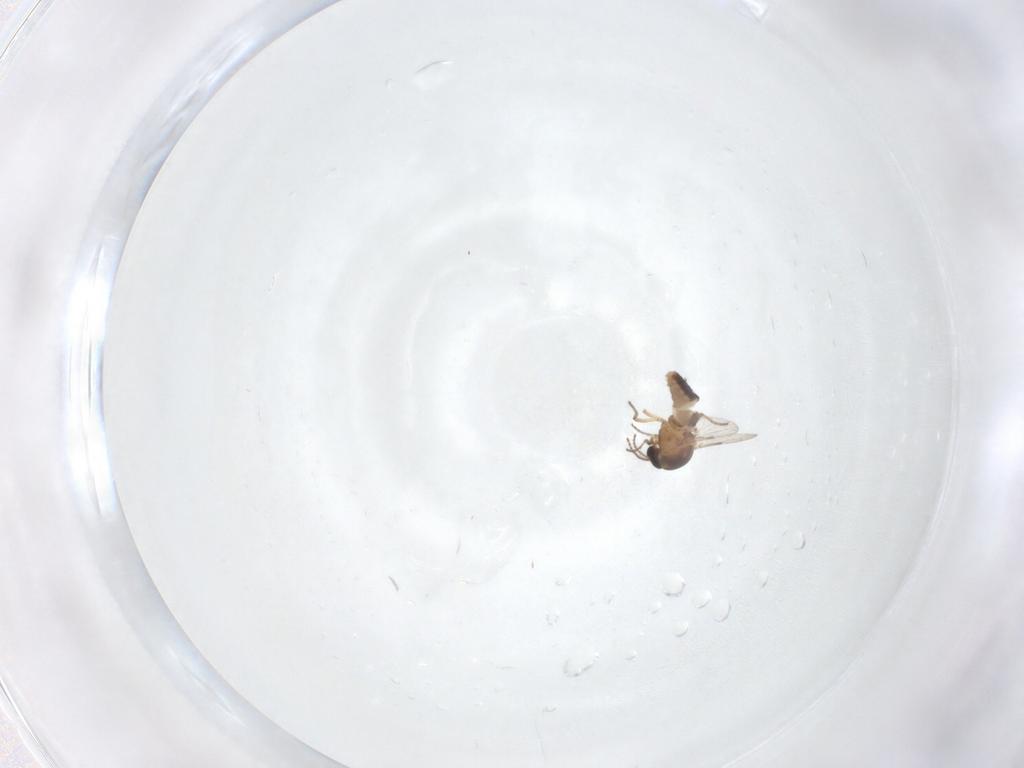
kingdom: Animalia
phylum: Arthropoda
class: Insecta
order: Diptera
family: Ceratopogonidae
